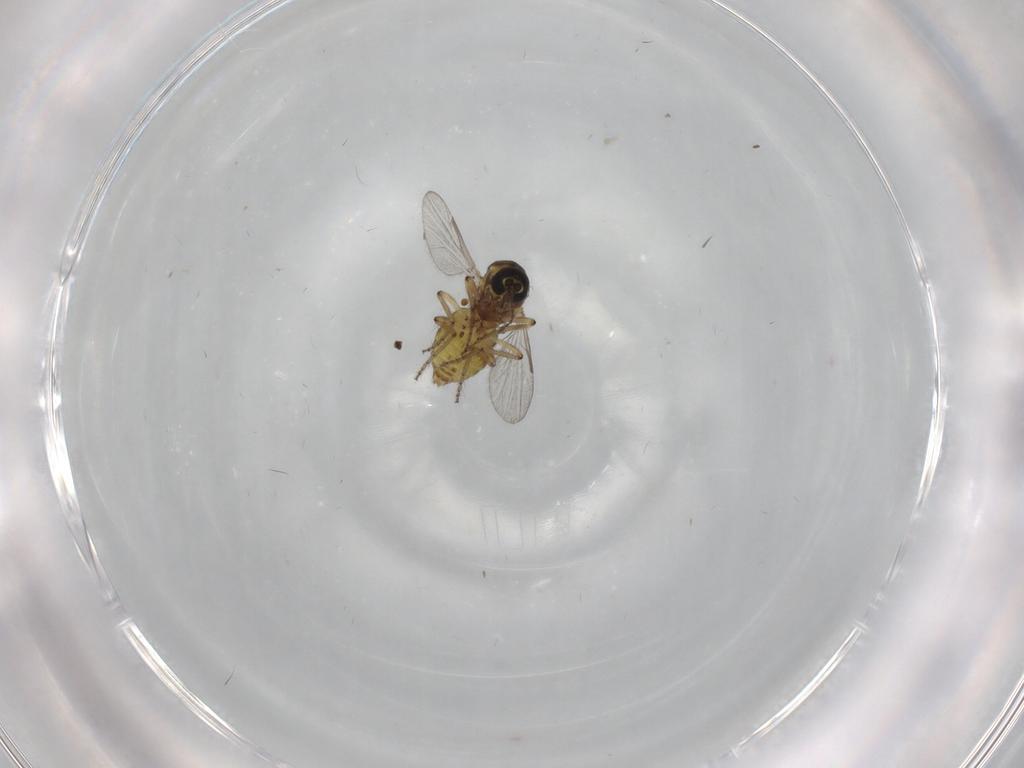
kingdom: Animalia
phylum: Arthropoda
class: Insecta
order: Diptera
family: Ceratopogonidae
